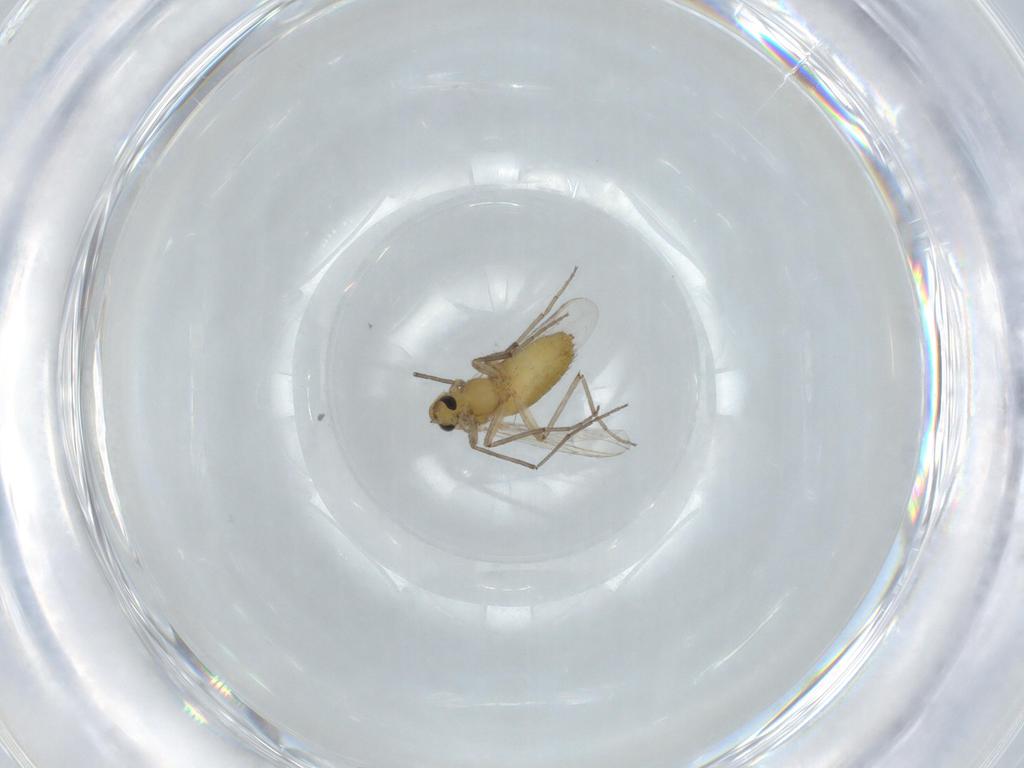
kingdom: Animalia
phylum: Arthropoda
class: Insecta
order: Diptera
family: Chironomidae
